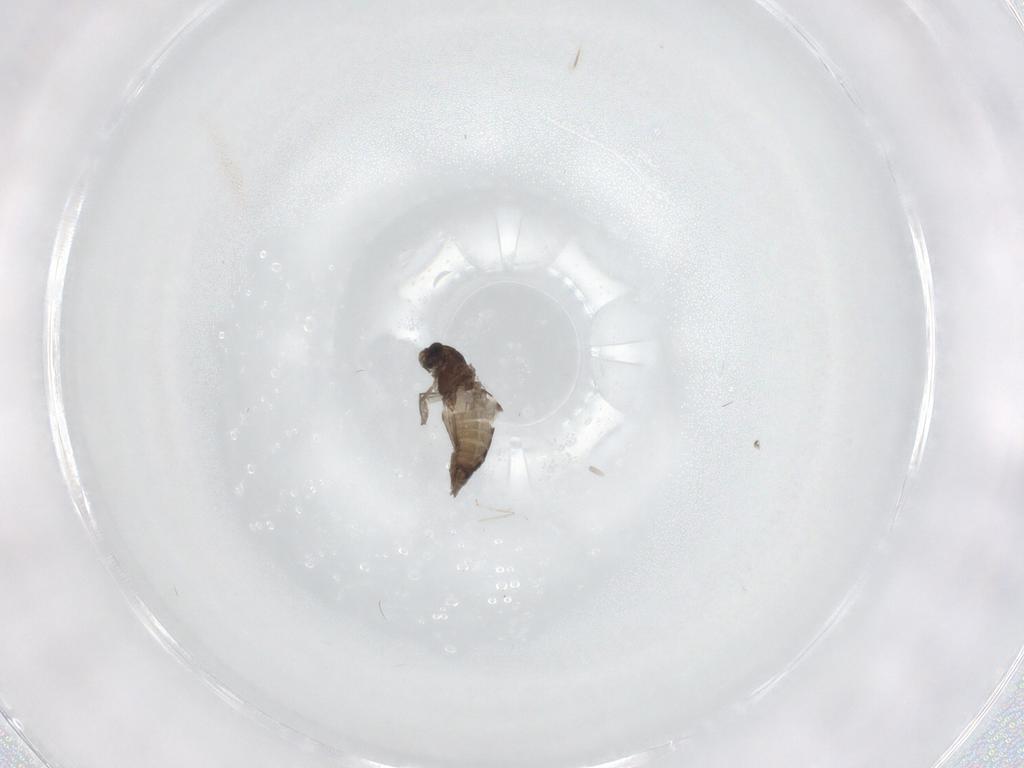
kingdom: Animalia
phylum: Arthropoda
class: Insecta
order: Diptera
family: Chironomidae
